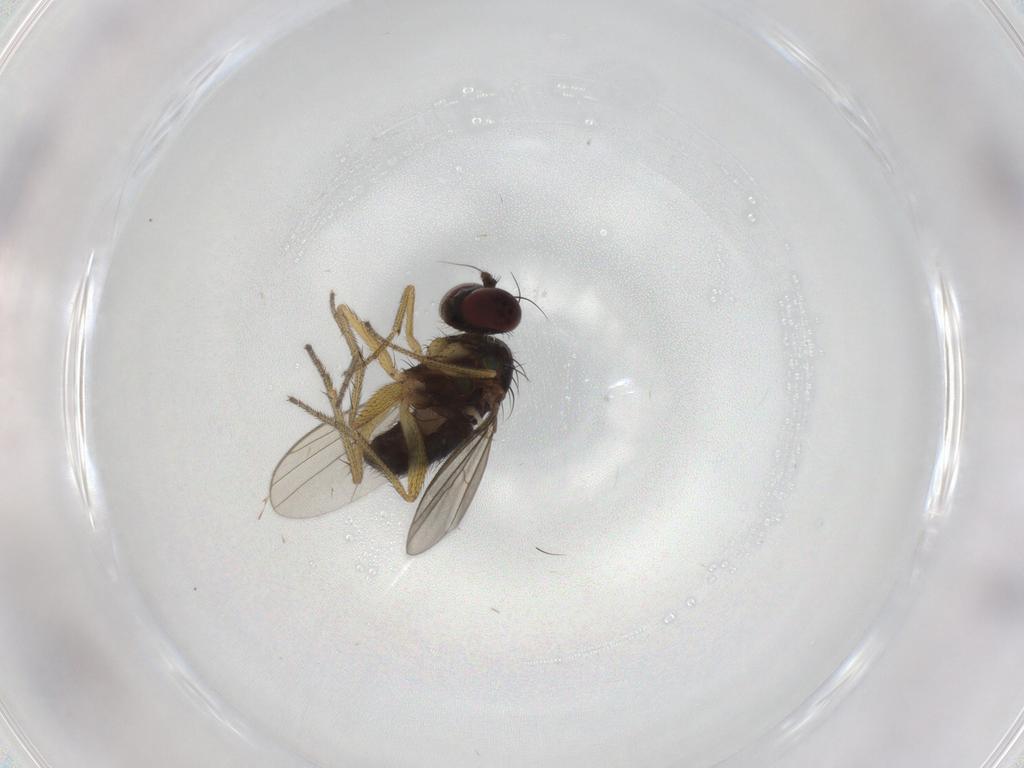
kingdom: Animalia
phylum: Arthropoda
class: Insecta
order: Diptera
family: Dolichopodidae
